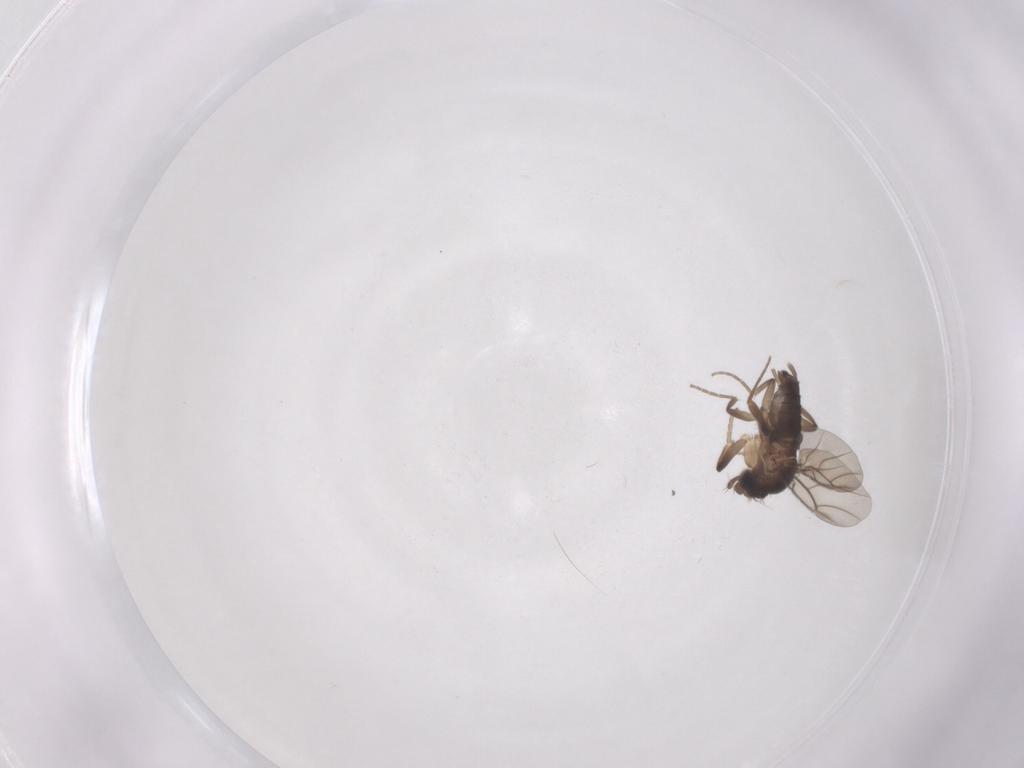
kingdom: Animalia
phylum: Arthropoda
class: Insecta
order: Diptera
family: Phoridae
